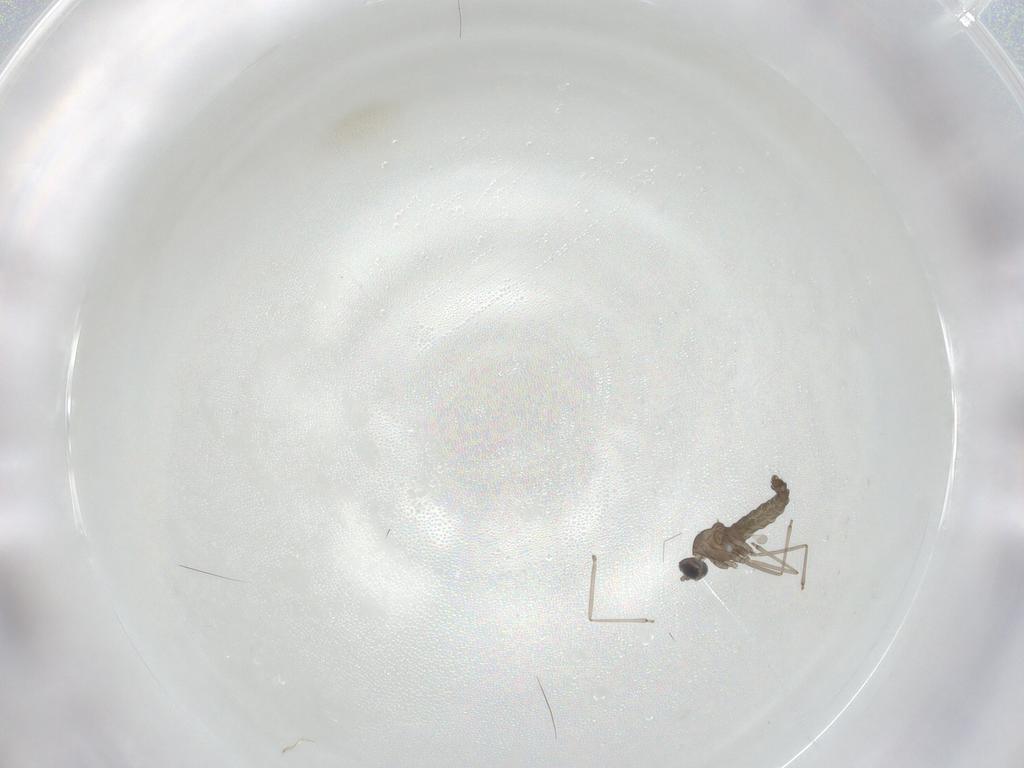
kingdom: Animalia
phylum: Arthropoda
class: Insecta
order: Diptera
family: Cecidomyiidae
